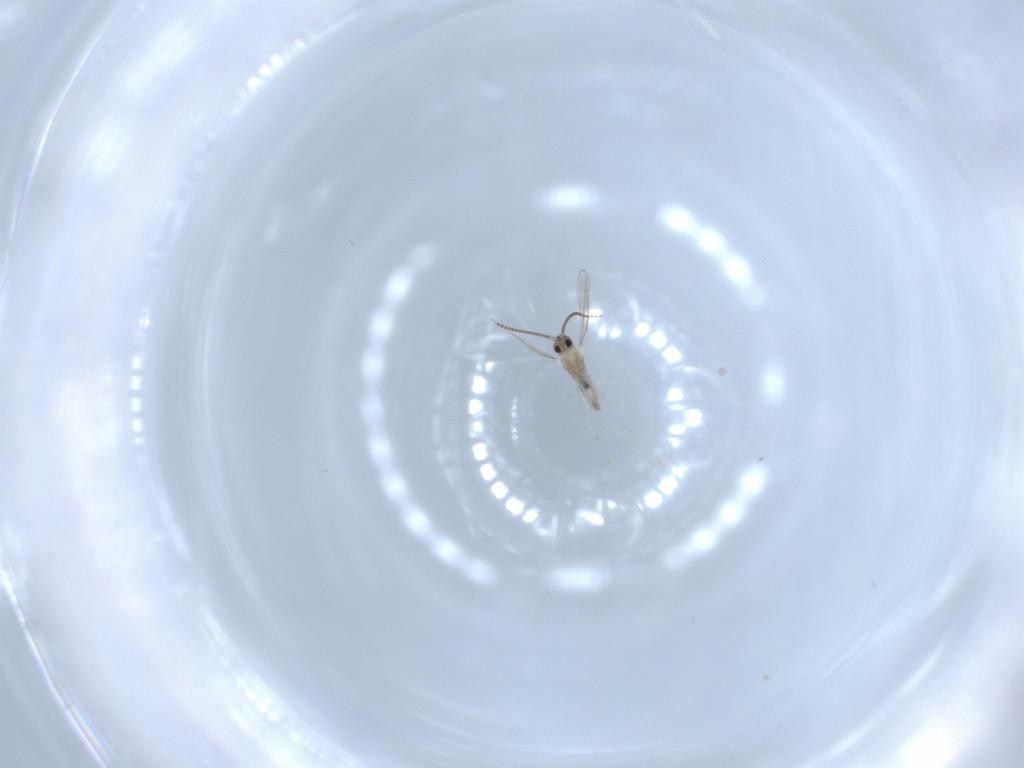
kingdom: Animalia
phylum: Arthropoda
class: Insecta
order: Diptera
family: Cecidomyiidae
